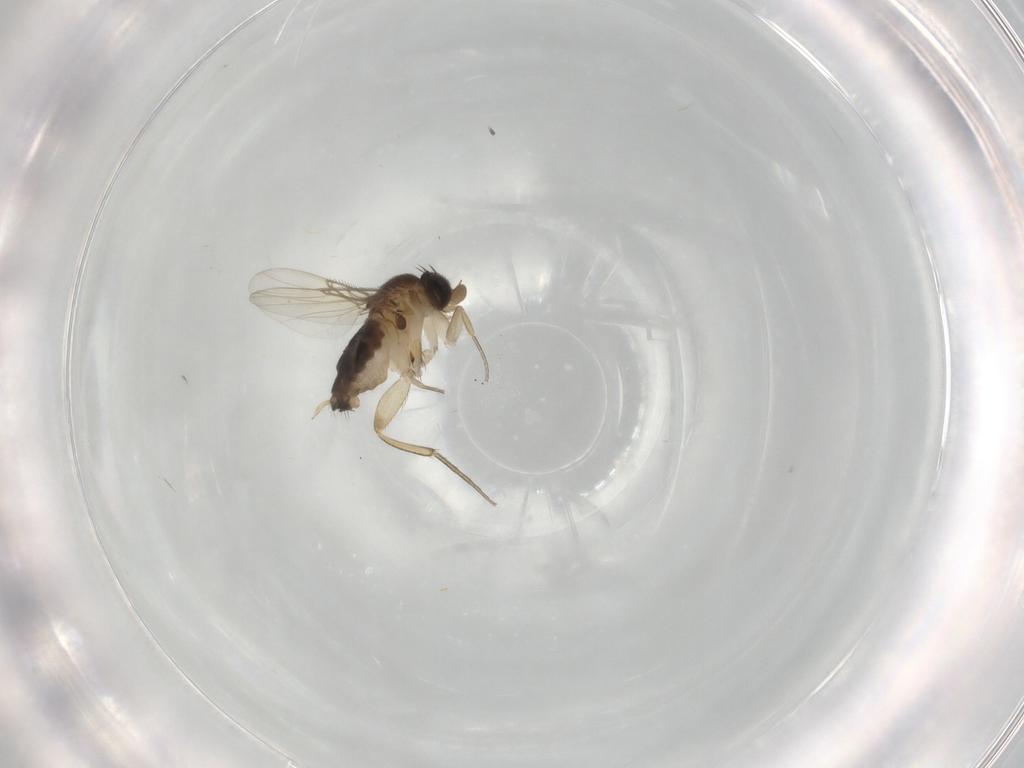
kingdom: Animalia
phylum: Arthropoda
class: Insecta
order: Diptera
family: Phoridae
